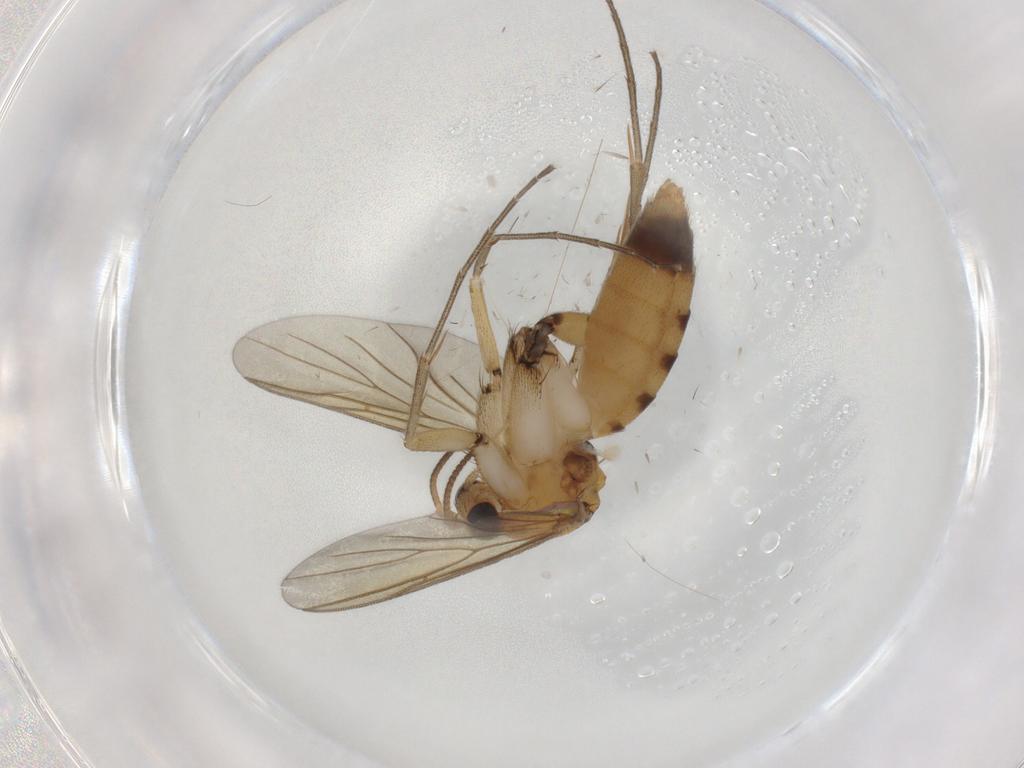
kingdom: Animalia
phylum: Arthropoda
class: Insecta
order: Diptera
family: Mycetophilidae
